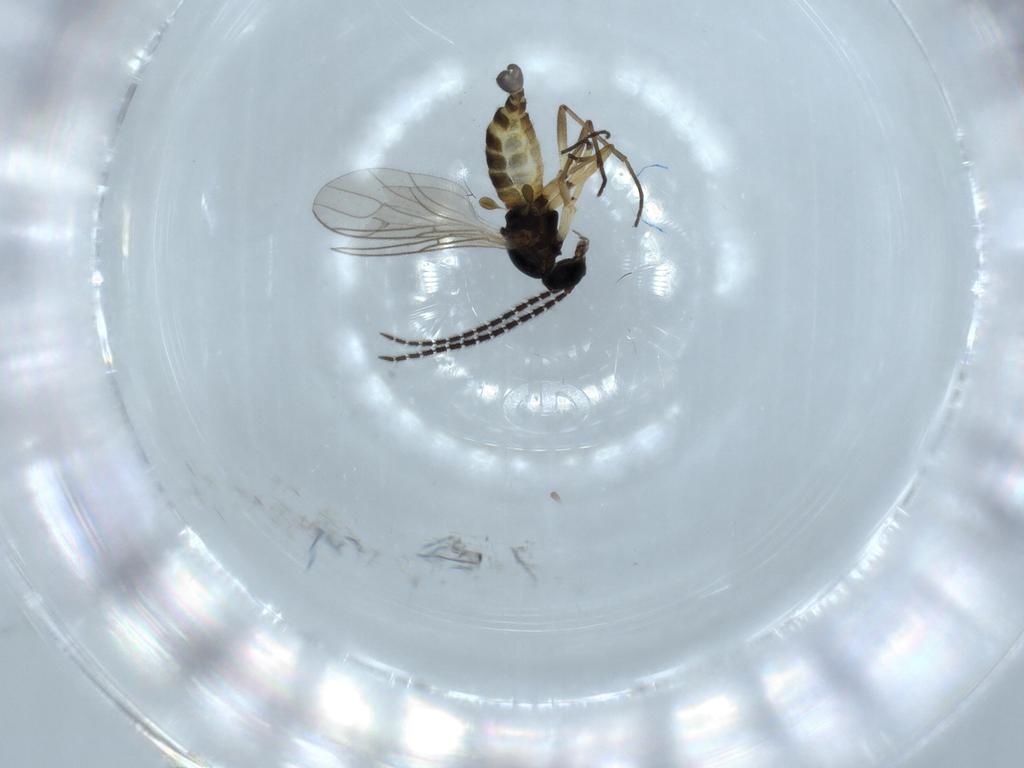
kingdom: Animalia
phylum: Arthropoda
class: Insecta
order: Diptera
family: Sciaridae
